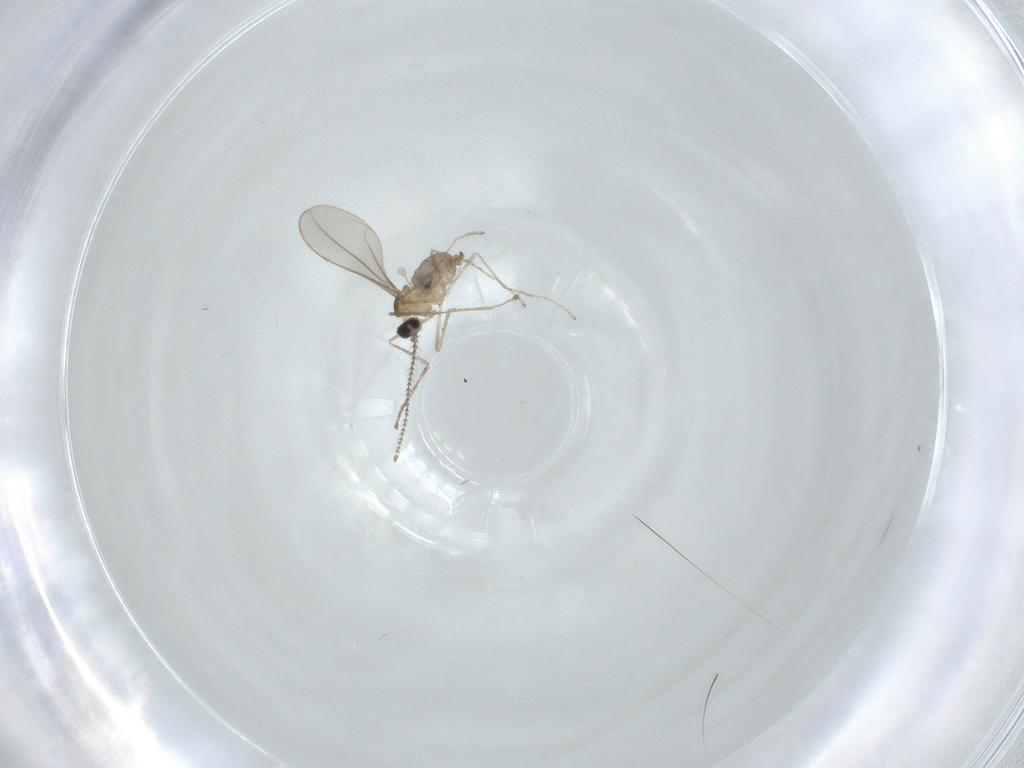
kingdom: Animalia
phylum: Arthropoda
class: Insecta
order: Diptera
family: Cecidomyiidae
